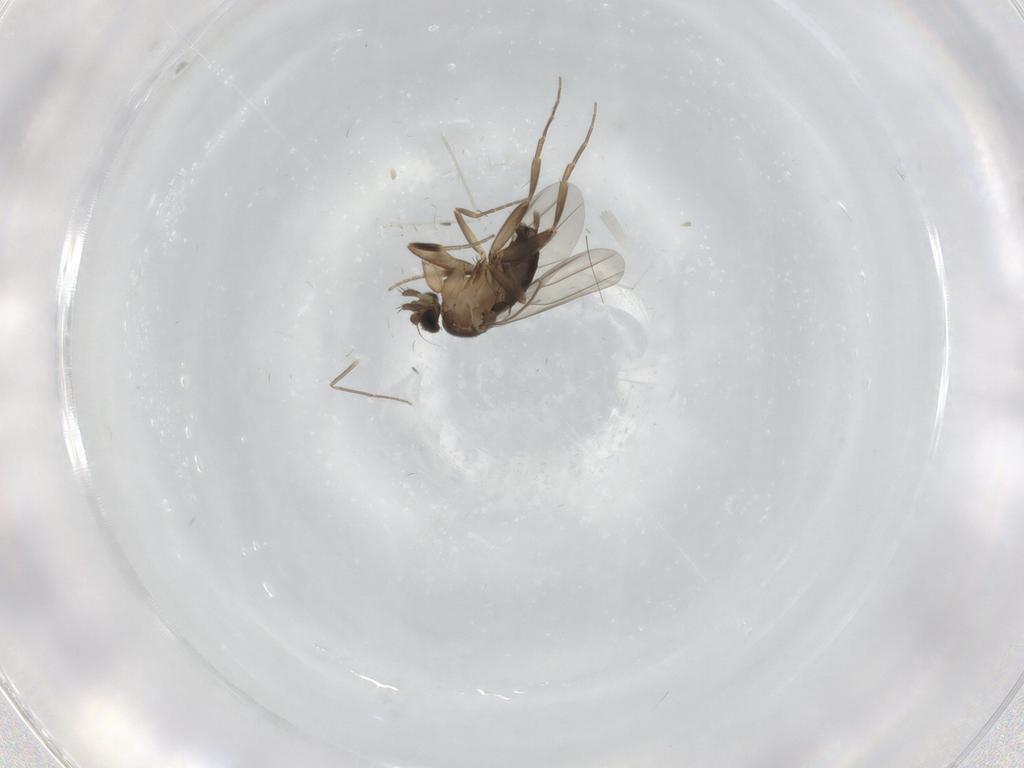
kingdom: Animalia
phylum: Arthropoda
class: Insecta
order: Diptera
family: Phoridae
